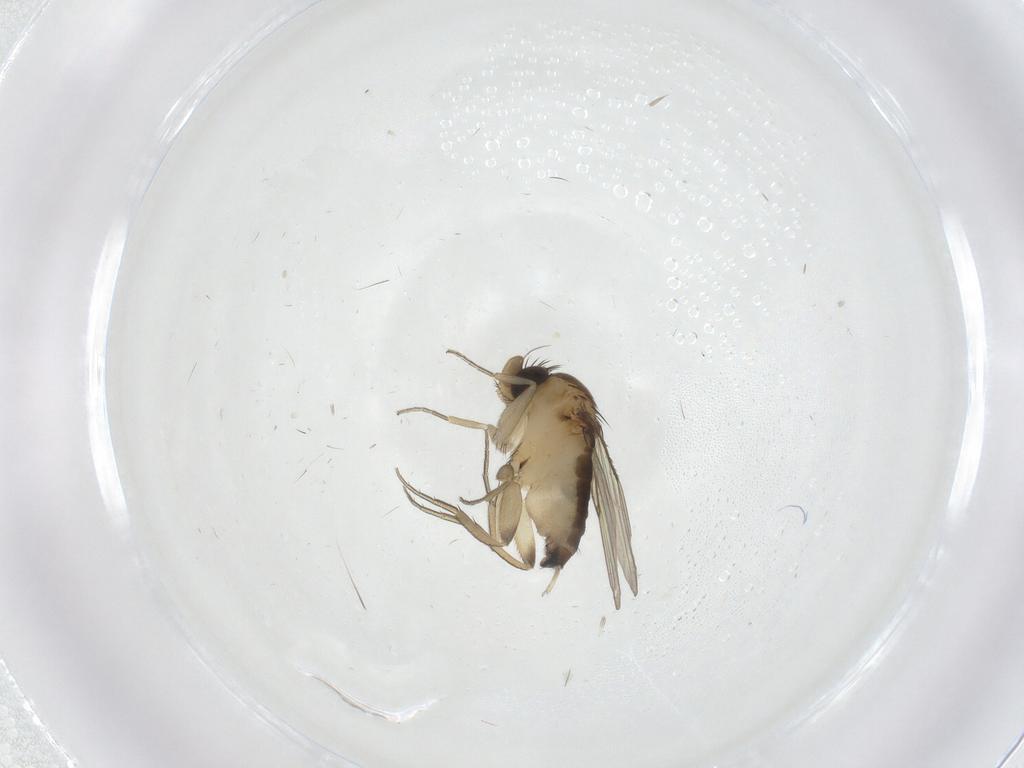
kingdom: Animalia
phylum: Arthropoda
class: Insecta
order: Diptera
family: Phoridae
